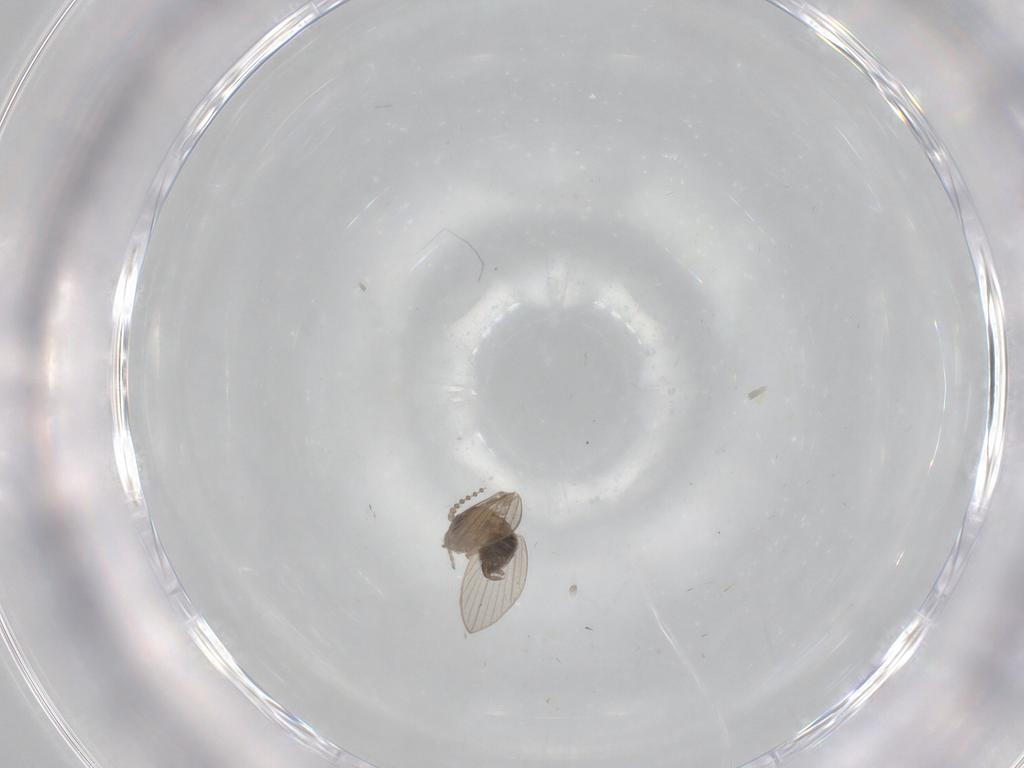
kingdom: Animalia
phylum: Arthropoda
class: Insecta
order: Diptera
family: Psychodidae
